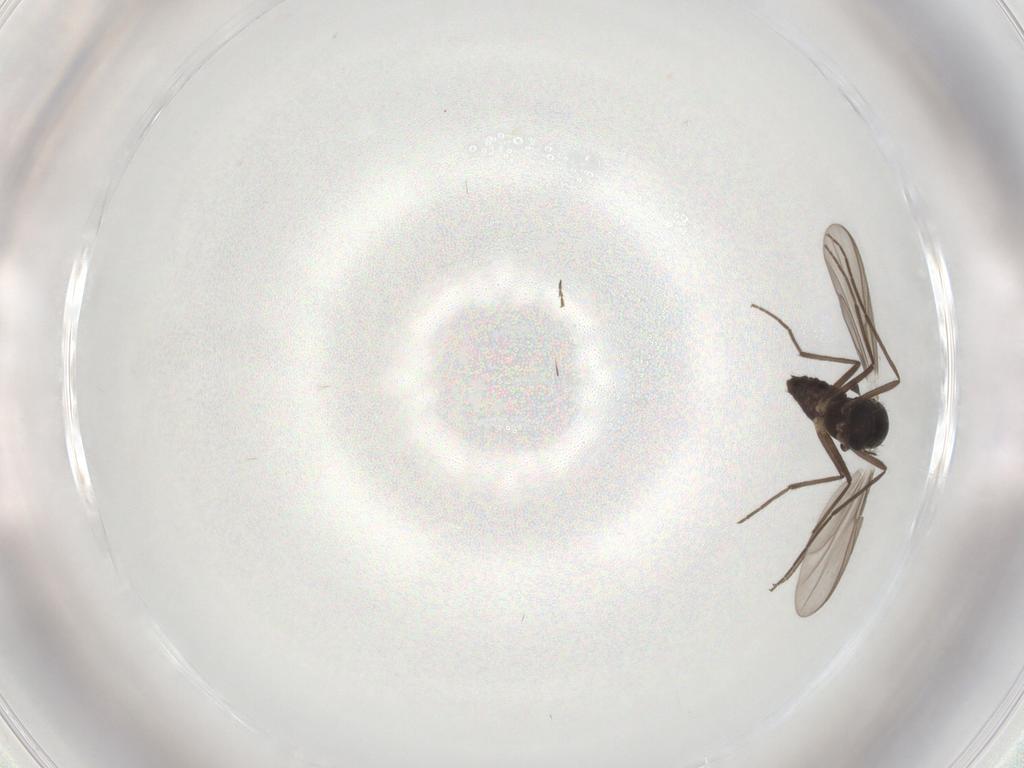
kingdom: Animalia
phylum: Arthropoda
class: Insecta
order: Diptera
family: Chironomidae
